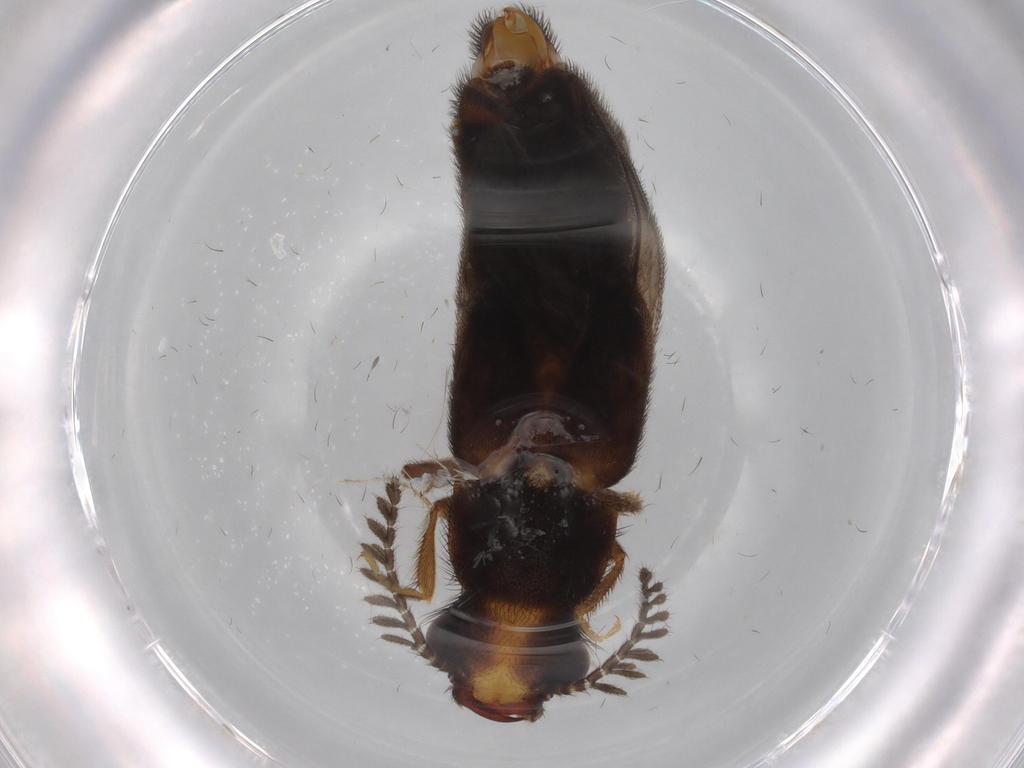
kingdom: Animalia
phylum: Arthropoda
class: Insecta
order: Coleoptera
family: Phengodidae
